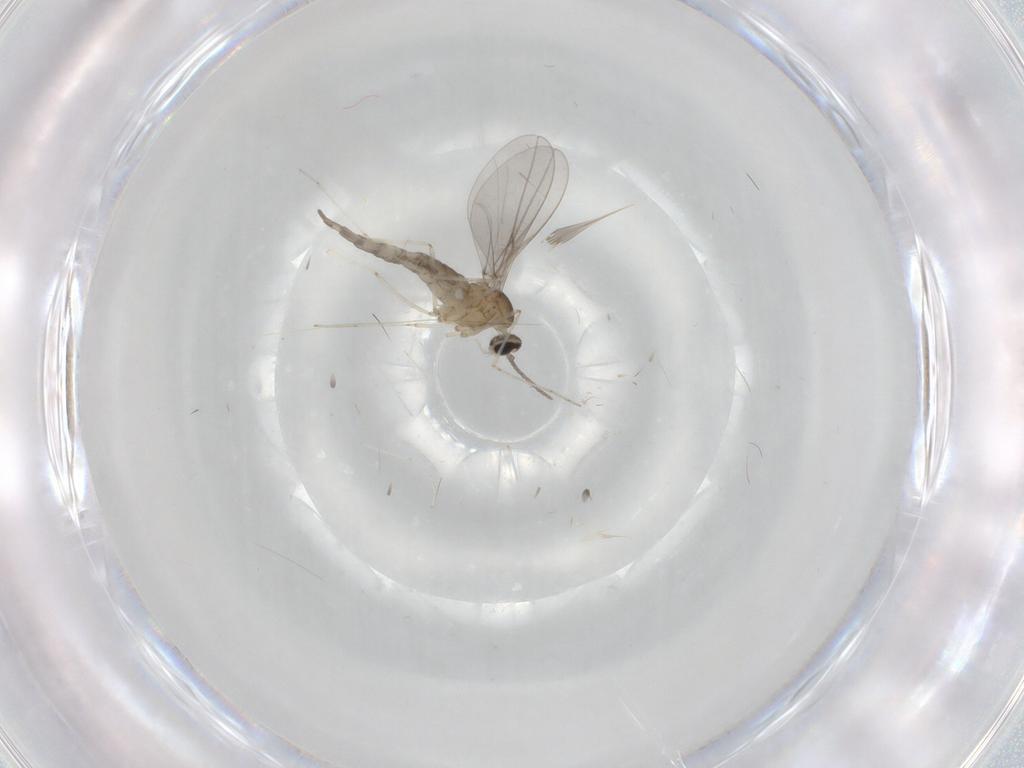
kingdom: Animalia
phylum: Arthropoda
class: Insecta
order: Diptera
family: Cecidomyiidae
